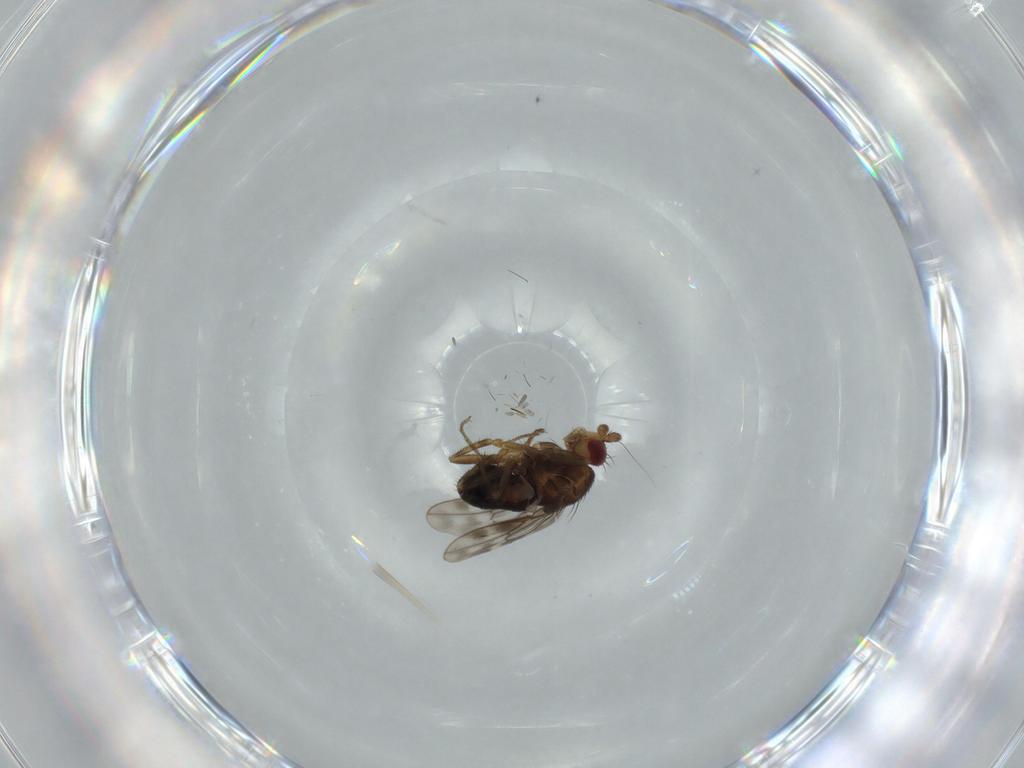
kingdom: Animalia
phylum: Arthropoda
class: Insecta
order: Diptera
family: Sphaeroceridae
